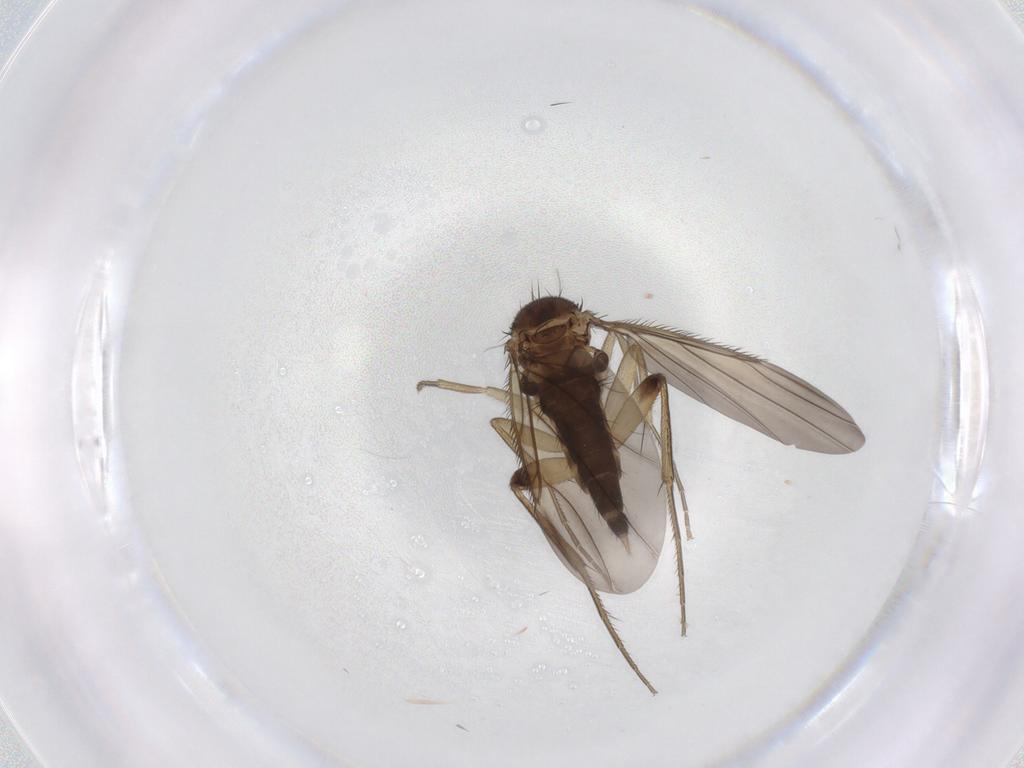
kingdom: Animalia
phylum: Arthropoda
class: Insecta
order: Diptera
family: Phoridae
